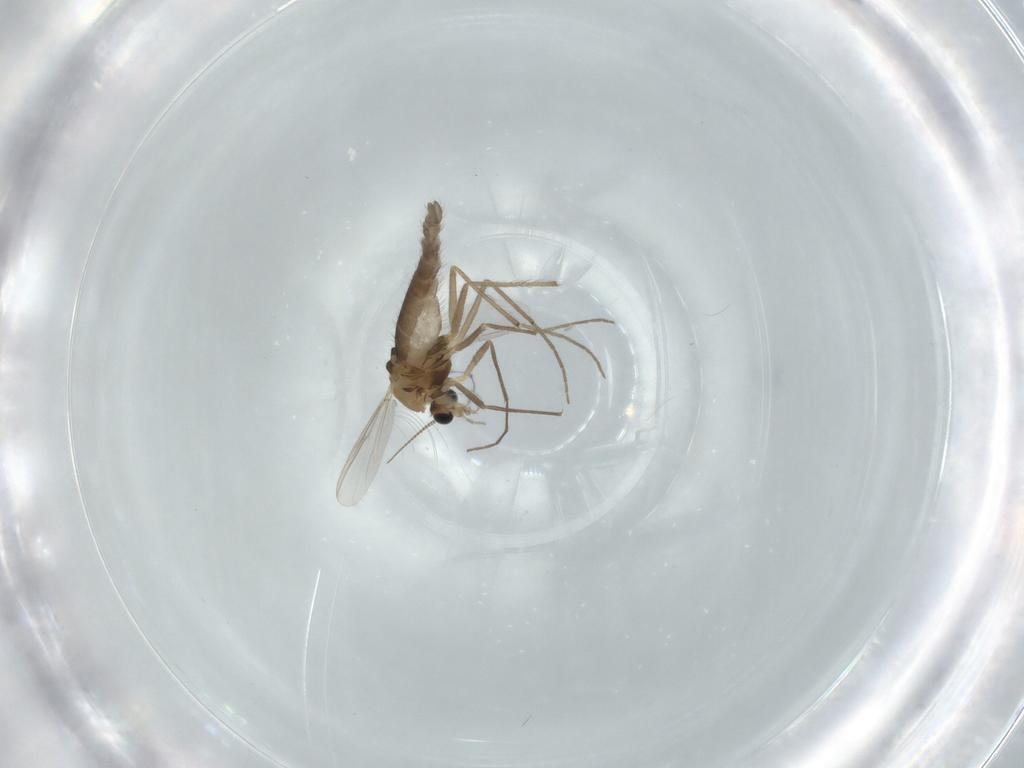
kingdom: Animalia
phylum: Arthropoda
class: Insecta
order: Diptera
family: Chironomidae
